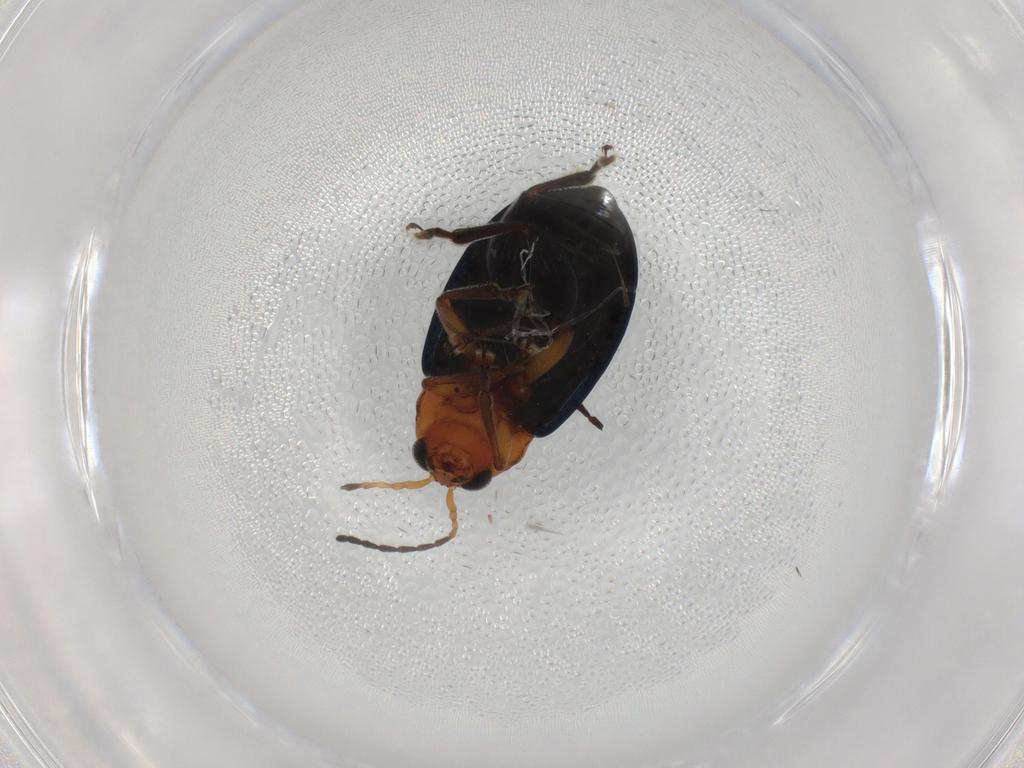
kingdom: Animalia
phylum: Arthropoda
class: Insecta
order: Coleoptera
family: Chrysomelidae
